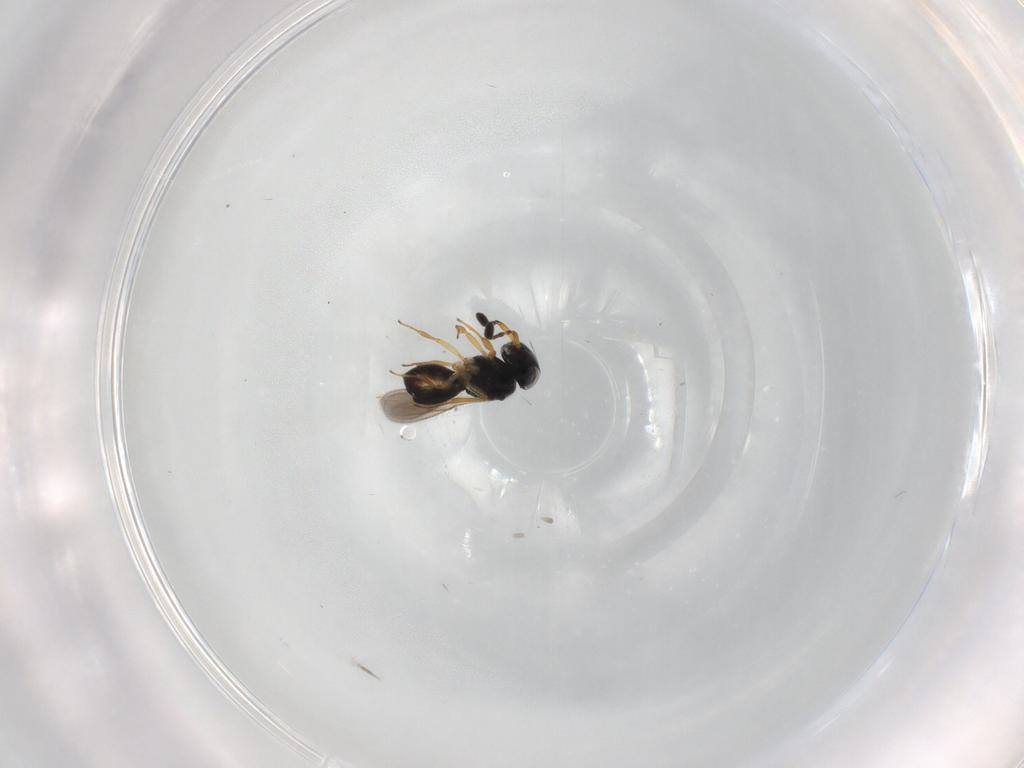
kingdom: Animalia
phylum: Arthropoda
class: Insecta
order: Hymenoptera
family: Scelionidae
